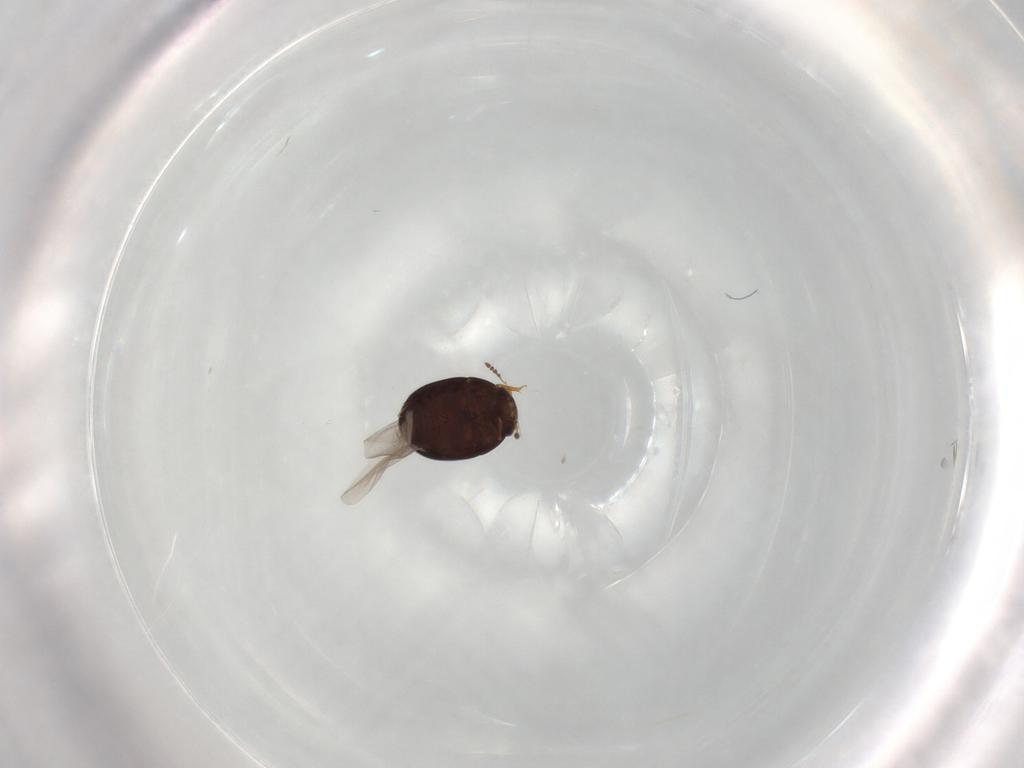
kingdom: Animalia
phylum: Arthropoda
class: Insecta
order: Coleoptera
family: Leiodidae
